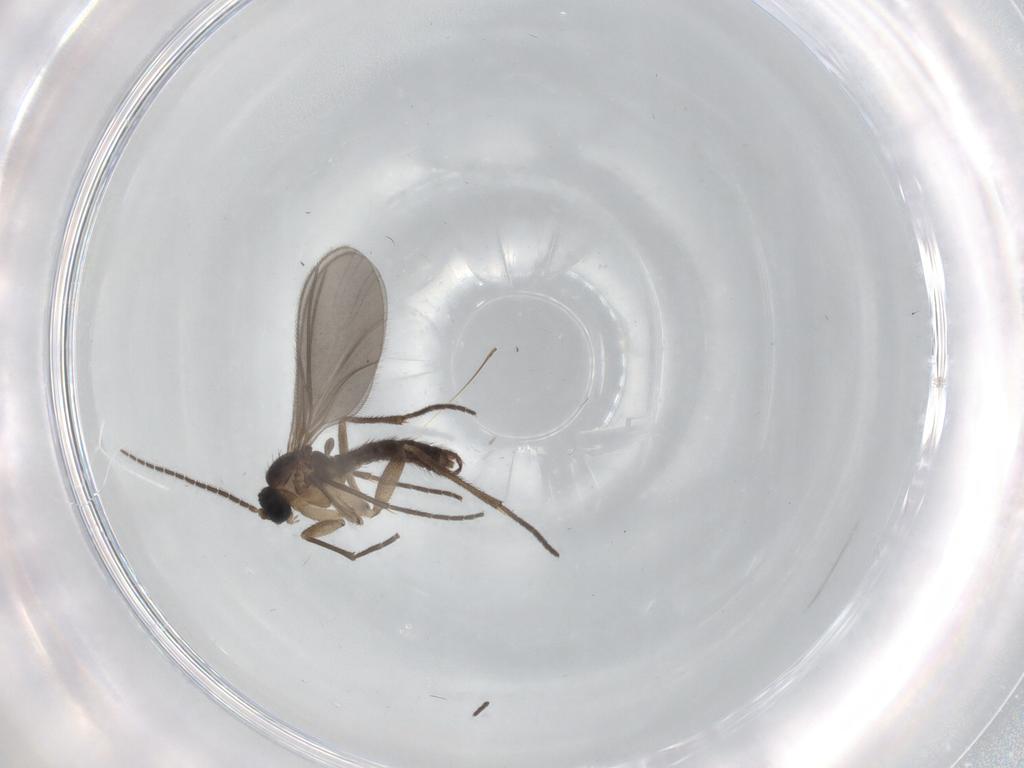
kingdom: Animalia
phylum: Arthropoda
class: Insecta
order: Diptera
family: Sciaridae
